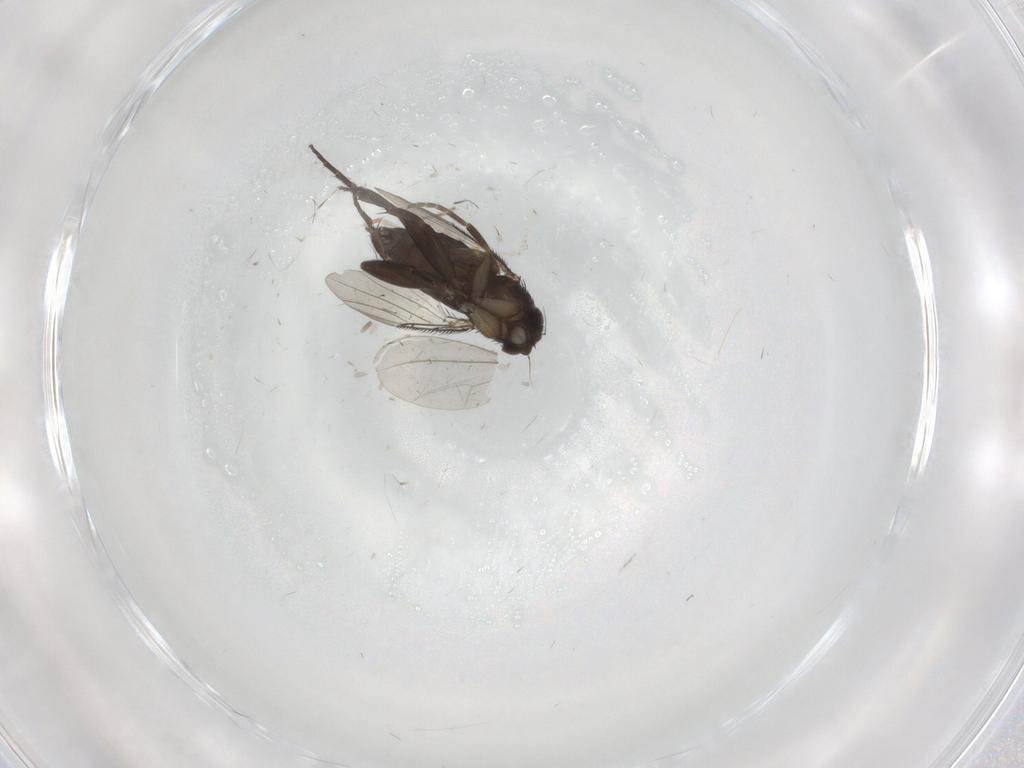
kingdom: Animalia
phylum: Arthropoda
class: Insecta
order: Diptera
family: Phoridae
